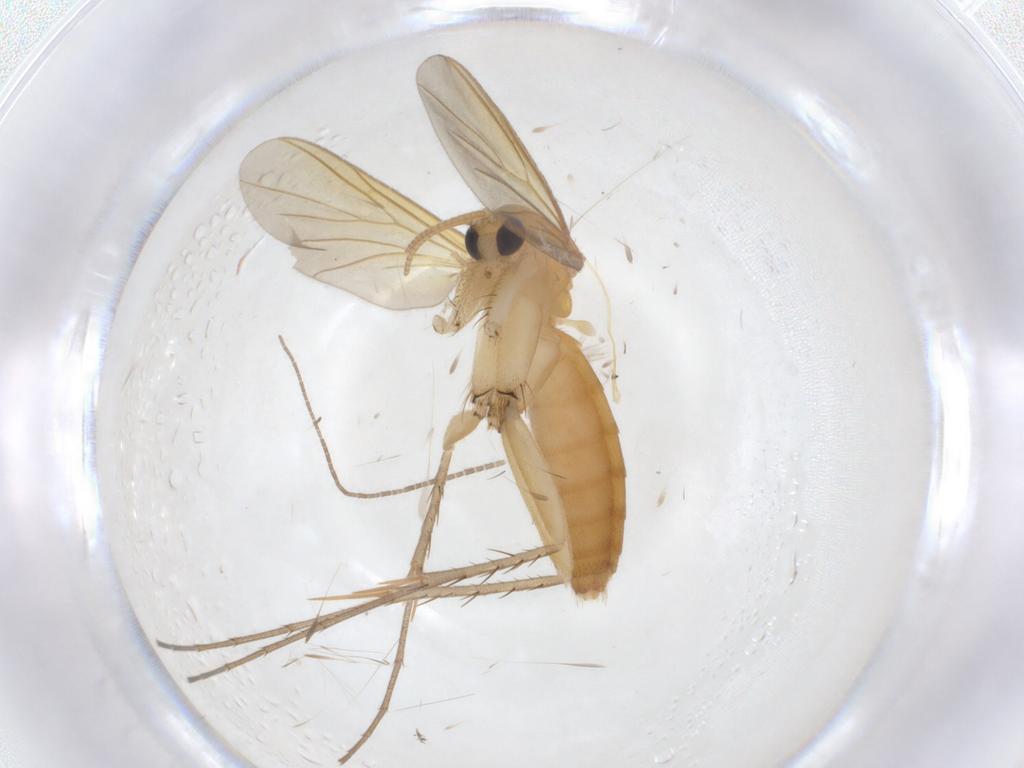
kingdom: Animalia
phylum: Arthropoda
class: Insecta
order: Diptera
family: Mycetophilidae
